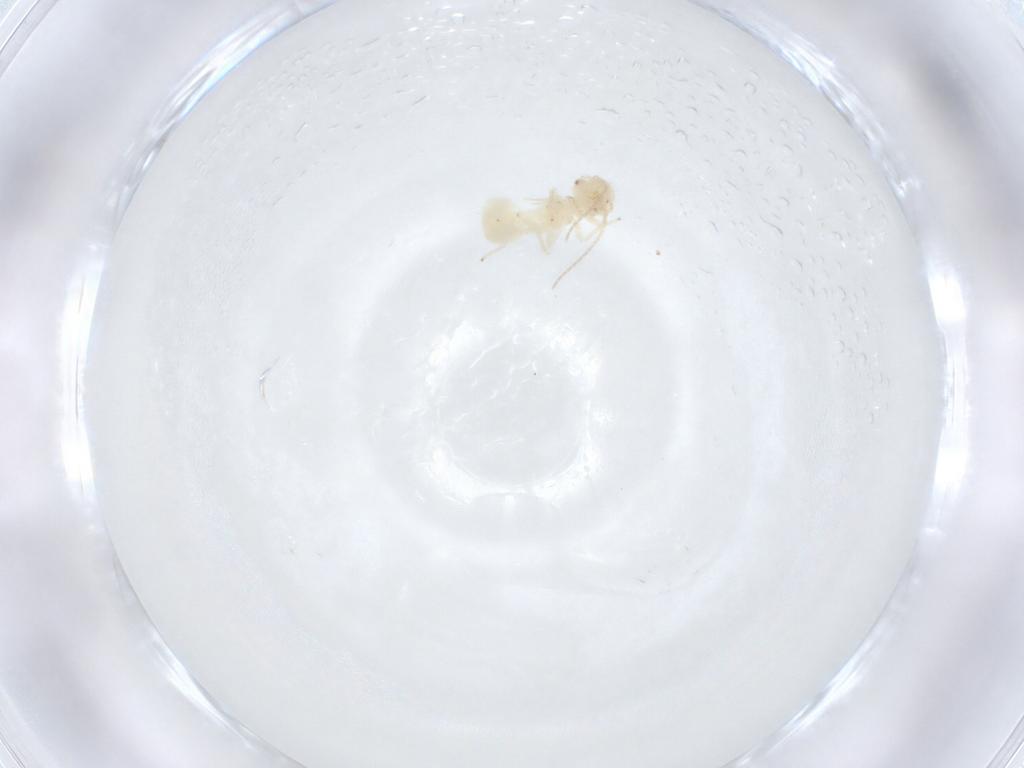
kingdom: Animalia
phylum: Arthropoda
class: Insecta
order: Psocodea
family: Caeciliusidae
